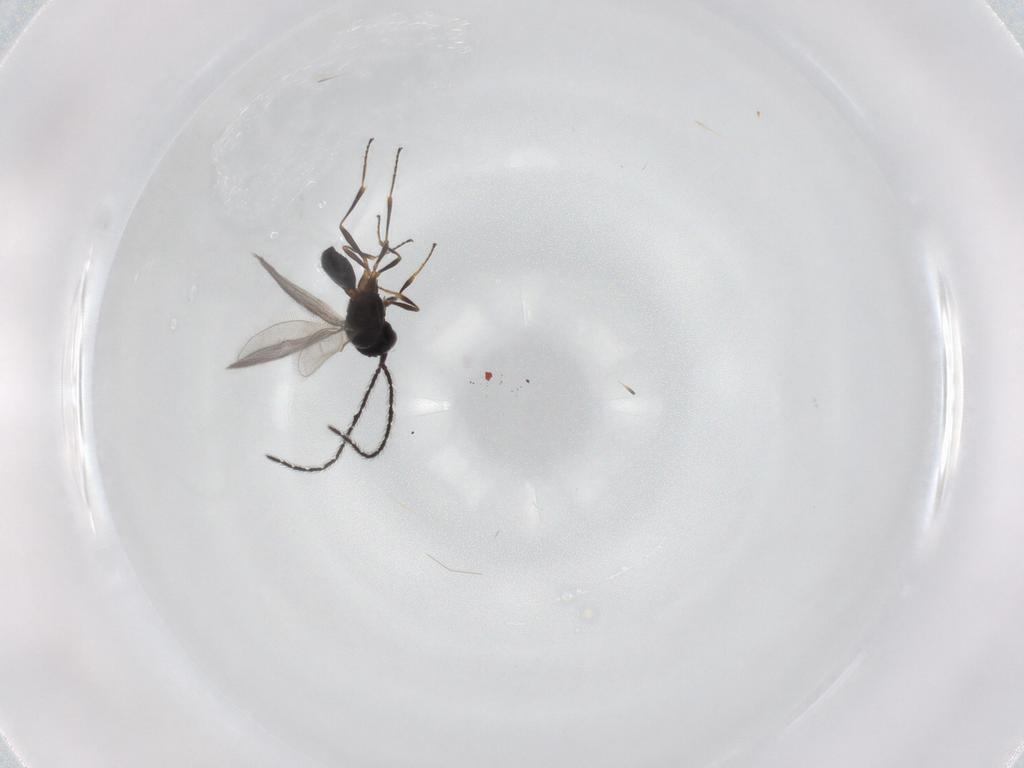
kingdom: Animalia
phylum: Arthropoda
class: Insecta
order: Hymenoptera
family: Scelionidae
